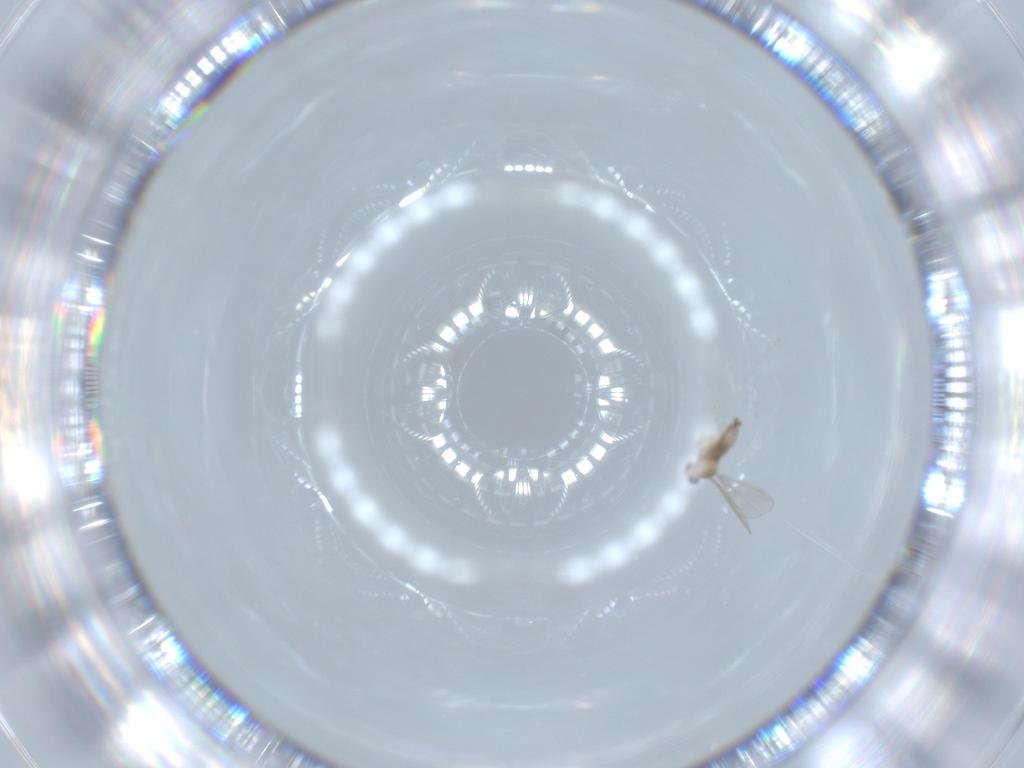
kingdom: Animalia
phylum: Arthropoda
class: Insecta
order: Diptera
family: Cecidomyiidae
